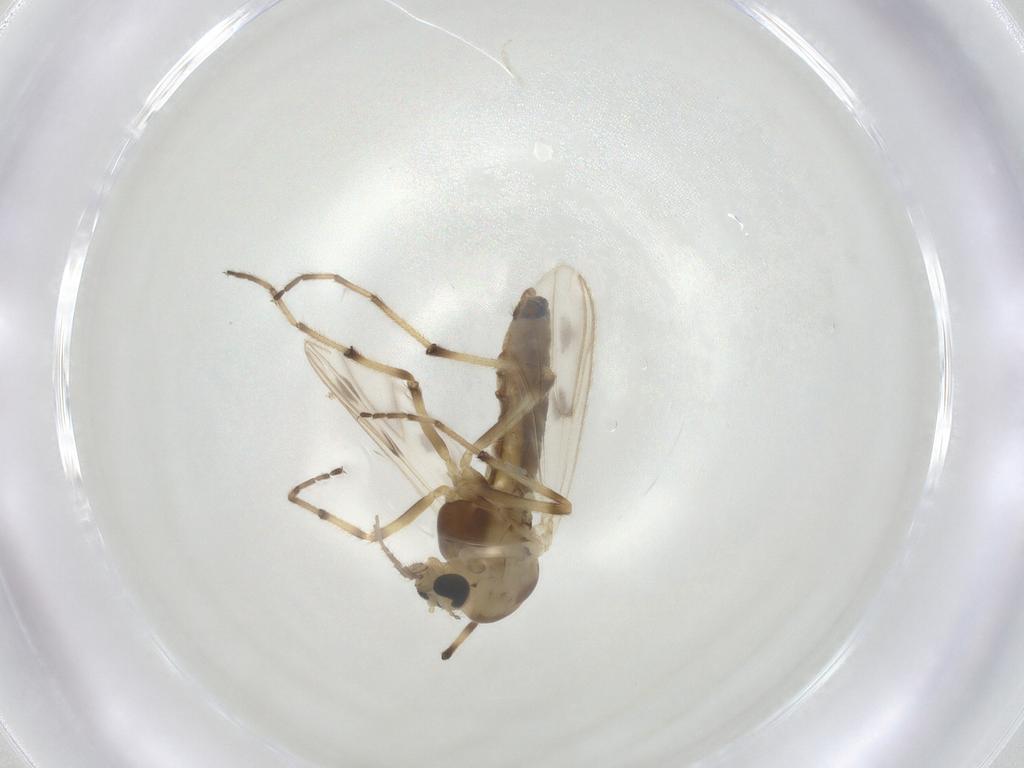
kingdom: Animalia
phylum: Arthropoda
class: Insecta
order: Diptera
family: Chironomidae
